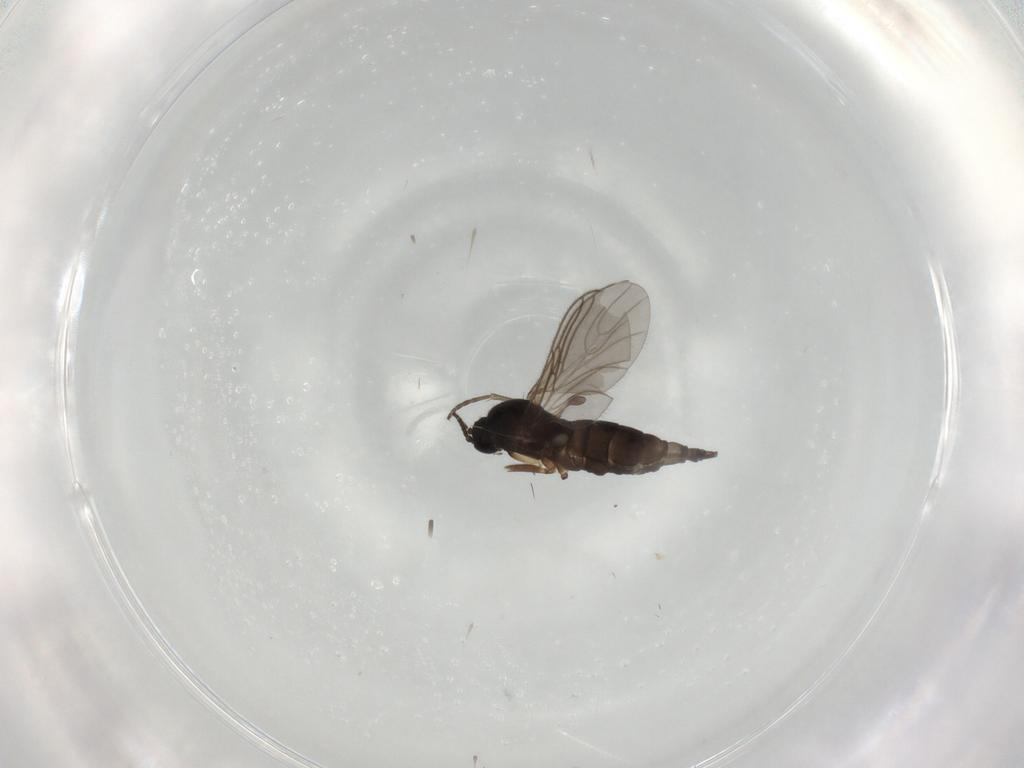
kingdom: Animalia
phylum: Arthropoda
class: Insecta
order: Diptera
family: Sciaridae
